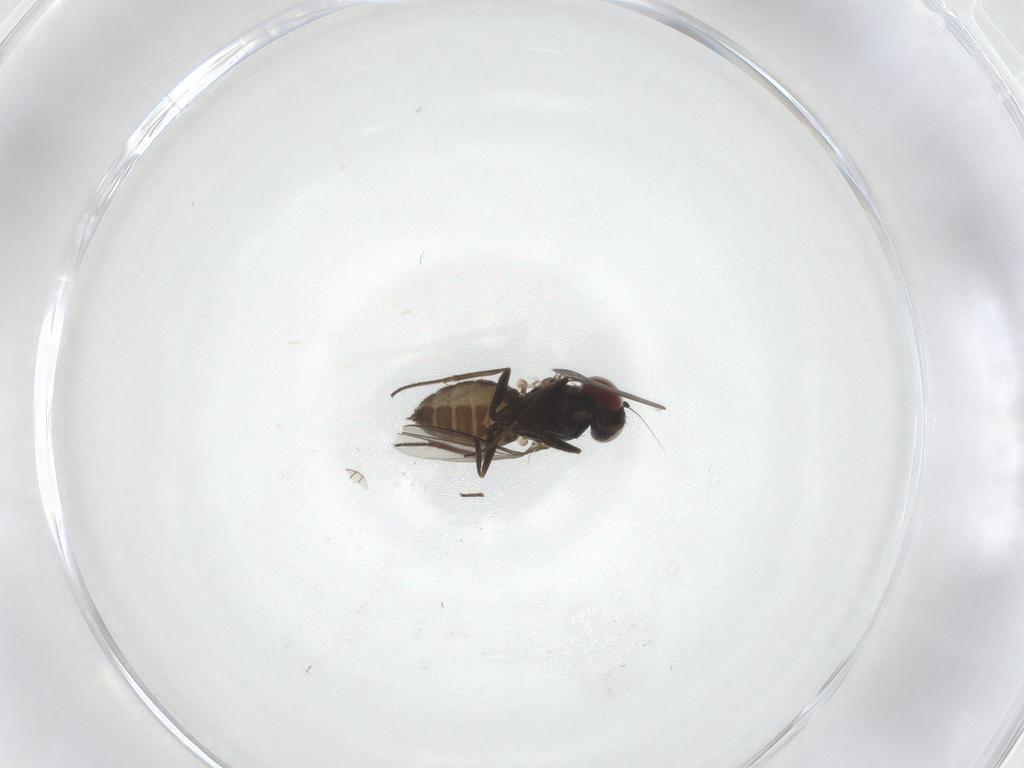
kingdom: Animalia
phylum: Arthropoda
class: Insecta
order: Diptera
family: Dolichopodidae
